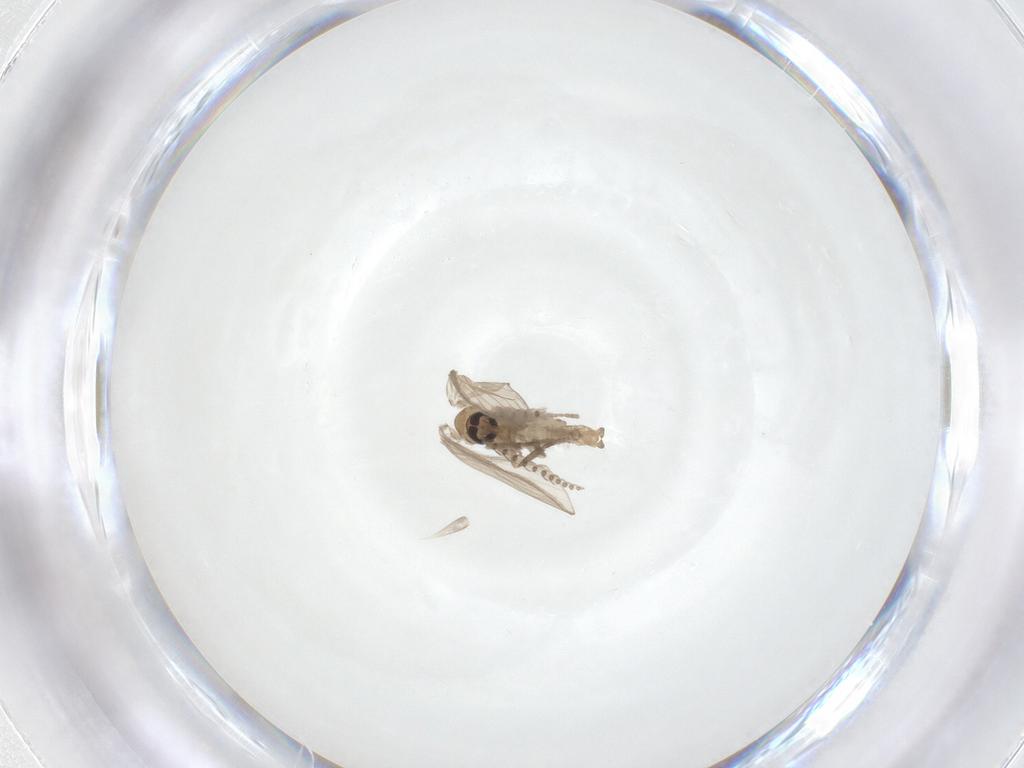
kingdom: Animalia
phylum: Arthropoda
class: Insecta
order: Diptera
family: Psychodidae
